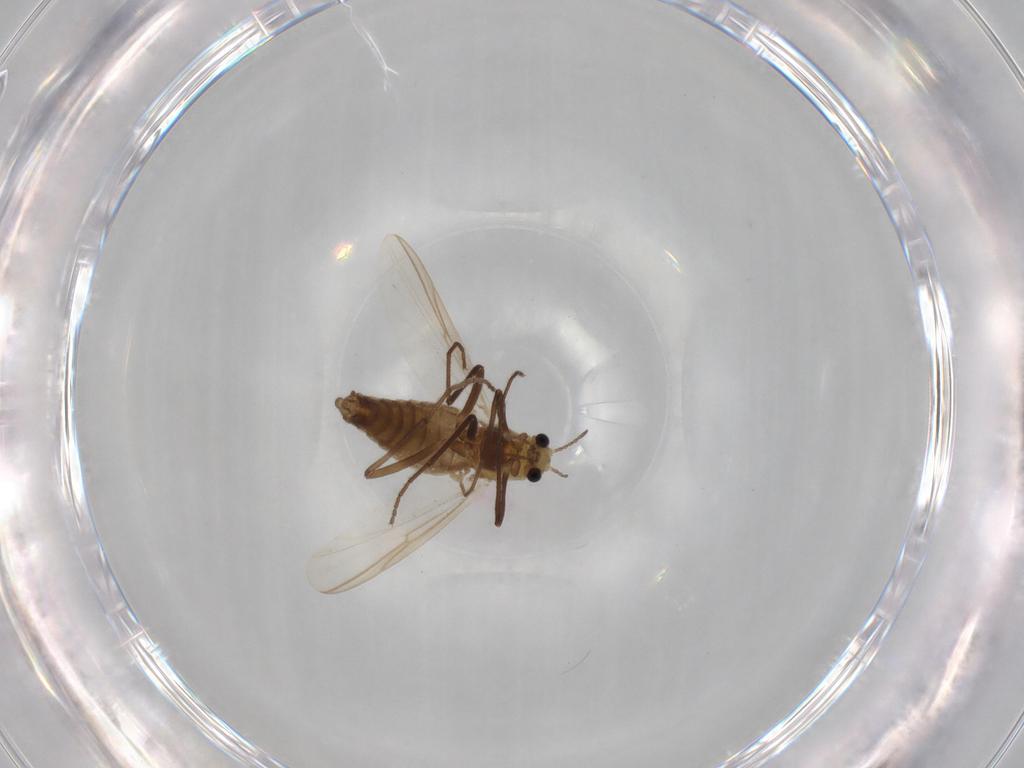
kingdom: Animalia
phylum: Arthropoda
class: Insecta
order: Diptera
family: Chironomidae
